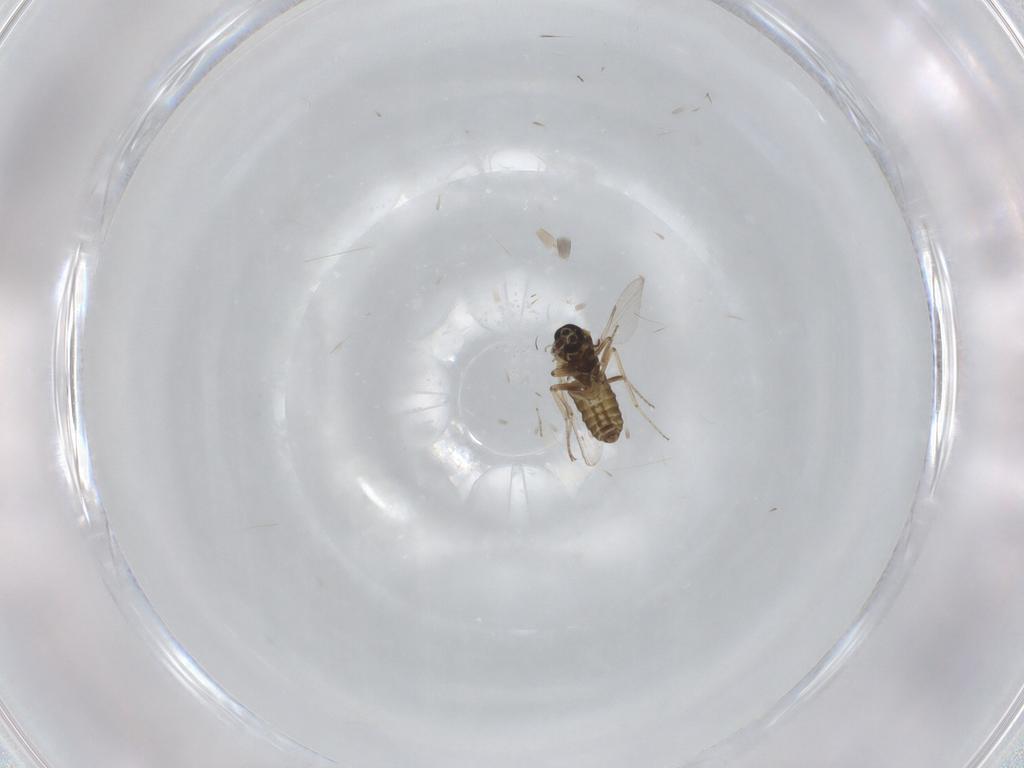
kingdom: Animalia
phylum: Arthropoda
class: Insecta
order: Diptera
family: Ceratopogonidae
